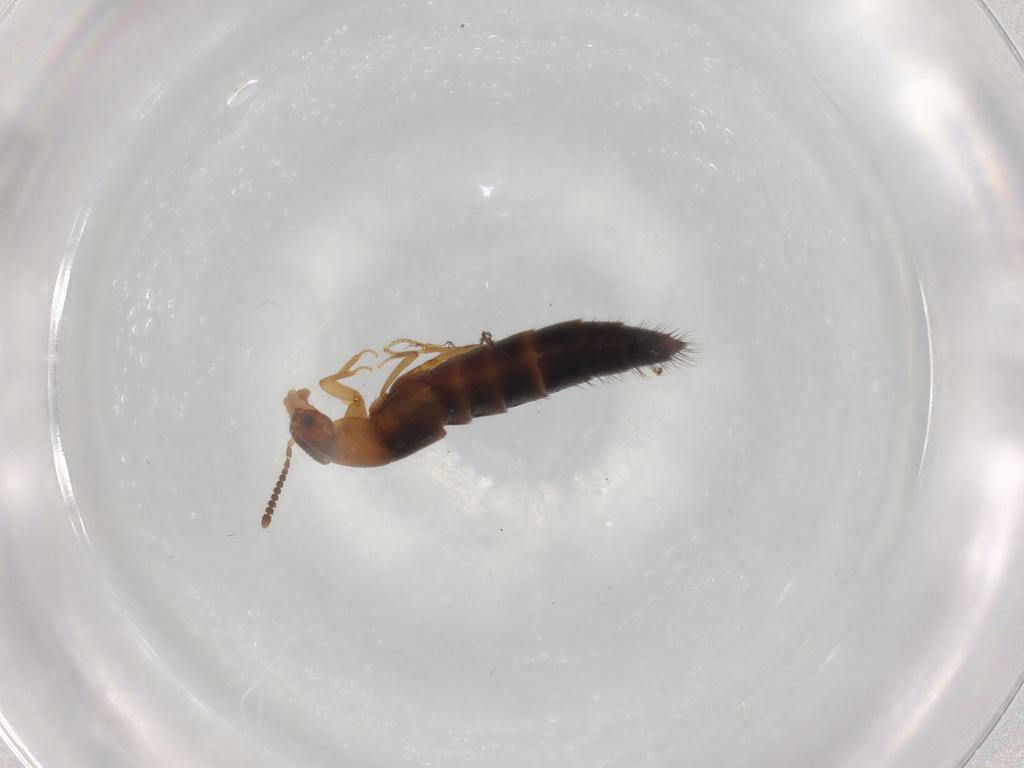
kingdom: Animalia
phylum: Arthropoda
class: Insecta
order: Coleoptera
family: Staphylinidae
